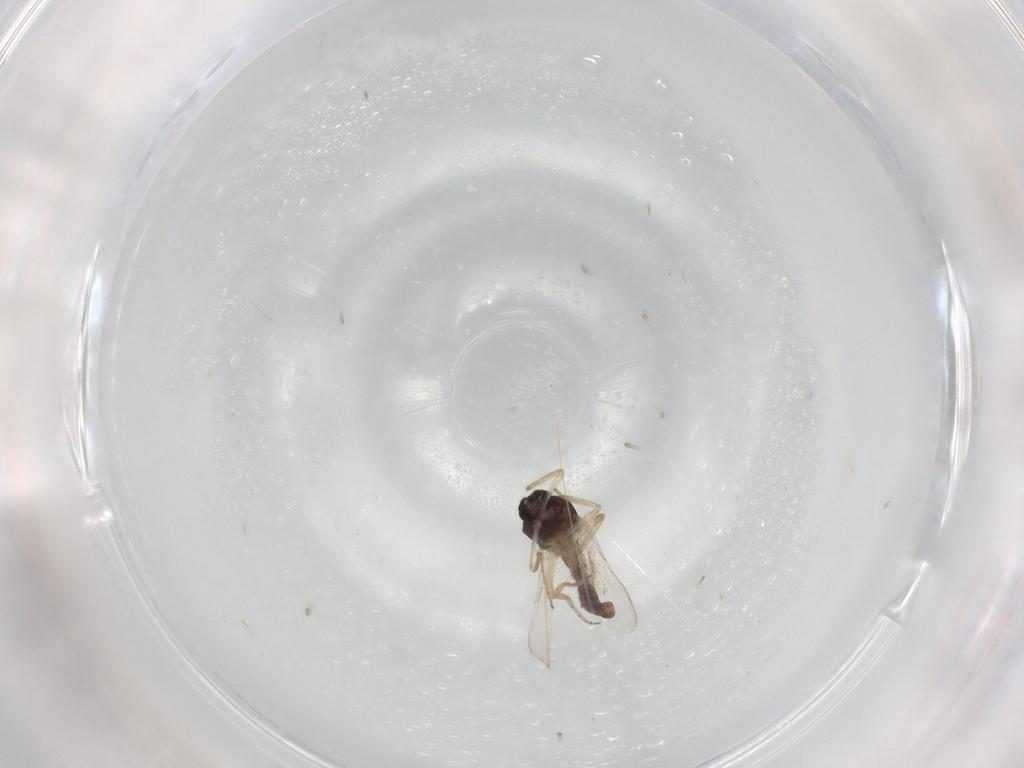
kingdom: Animalia
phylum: Arthropoda
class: Insecta
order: Diptera
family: Ceratopogonidae
